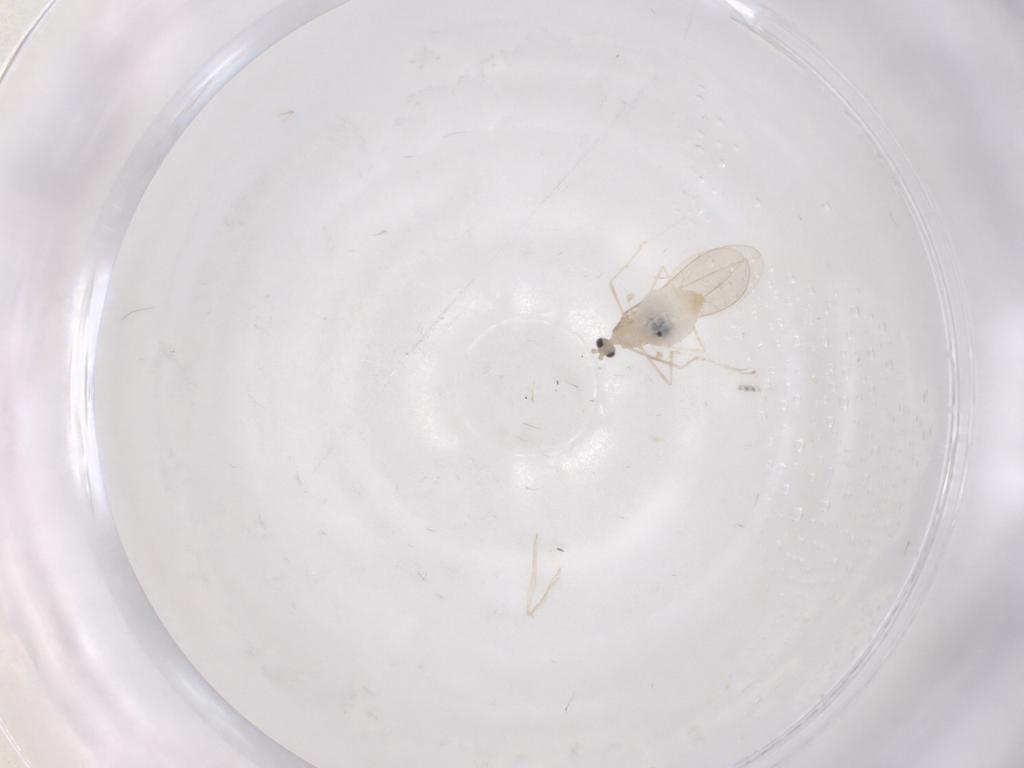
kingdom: Animalia
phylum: Arthropoda
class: Insecta
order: Diptera
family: Cecidomyiidae
